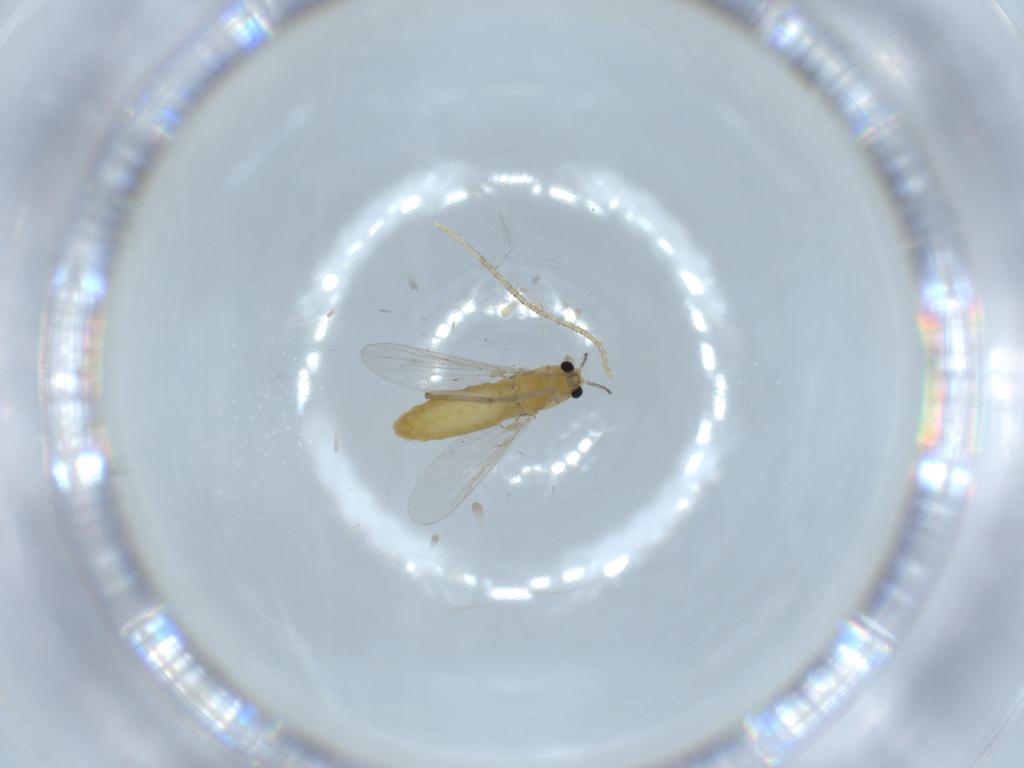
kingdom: Animalia
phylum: Arthropoda
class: Insecta
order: Diptera
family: Chironomidae
